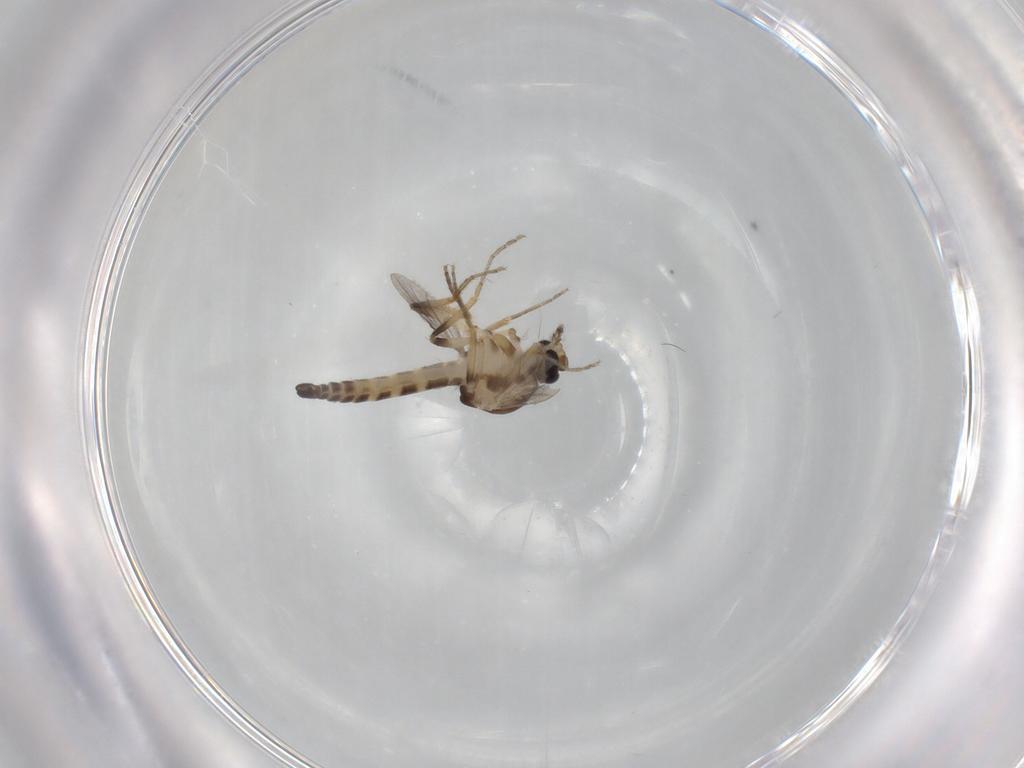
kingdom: Animalia
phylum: Arthropoda
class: Insecta
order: Diptera
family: Ceratopogonidae
